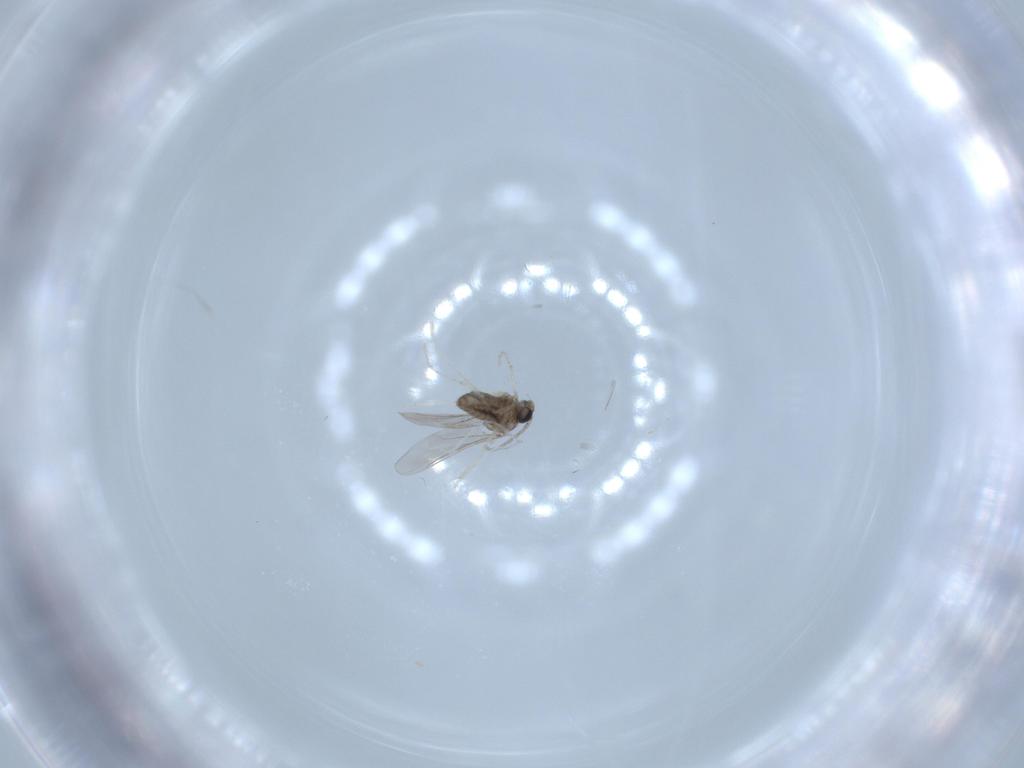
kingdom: Animalia
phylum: Arthropoda
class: Insecta
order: Diptera
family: Cecidomyiidae
